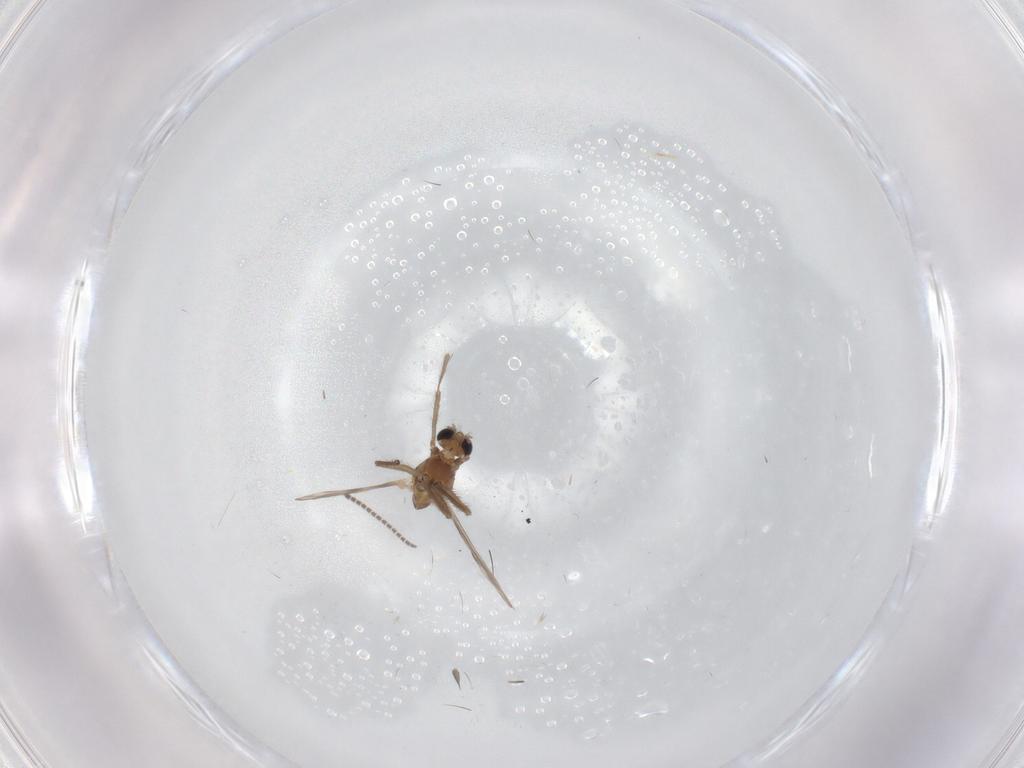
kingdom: Animalia
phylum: Arthropoda
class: Insecta
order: Diptera
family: Chironomidae
